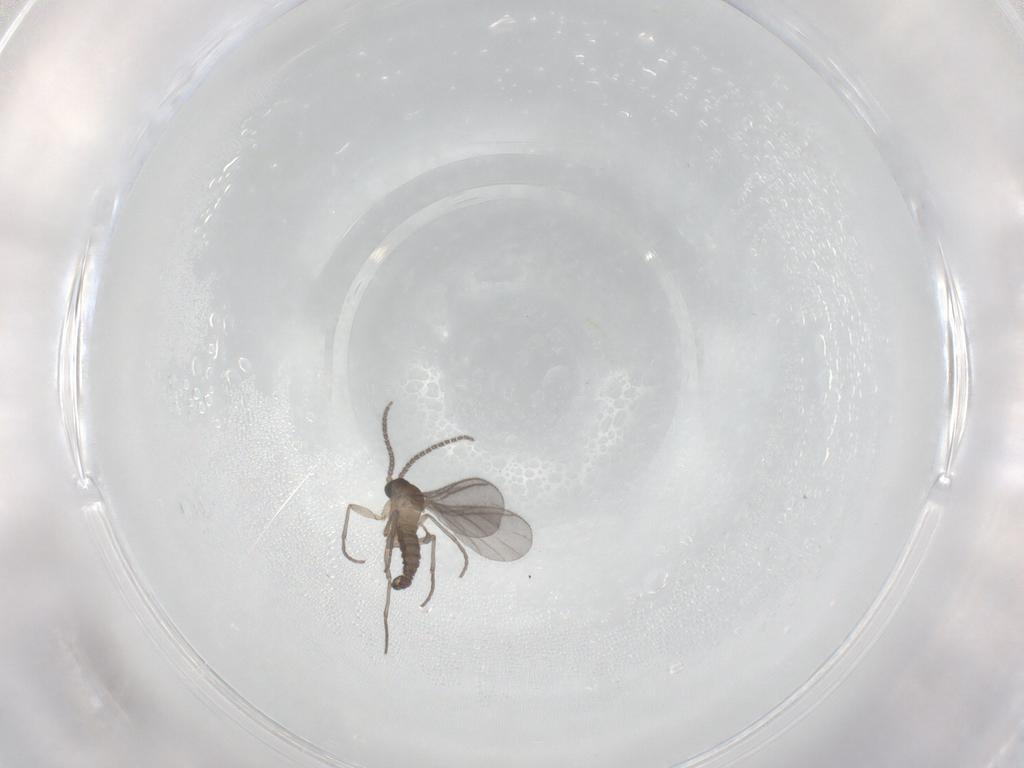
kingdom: Animalia
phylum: Arthropoda
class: Insecta
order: Diptera
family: Sciaridae
